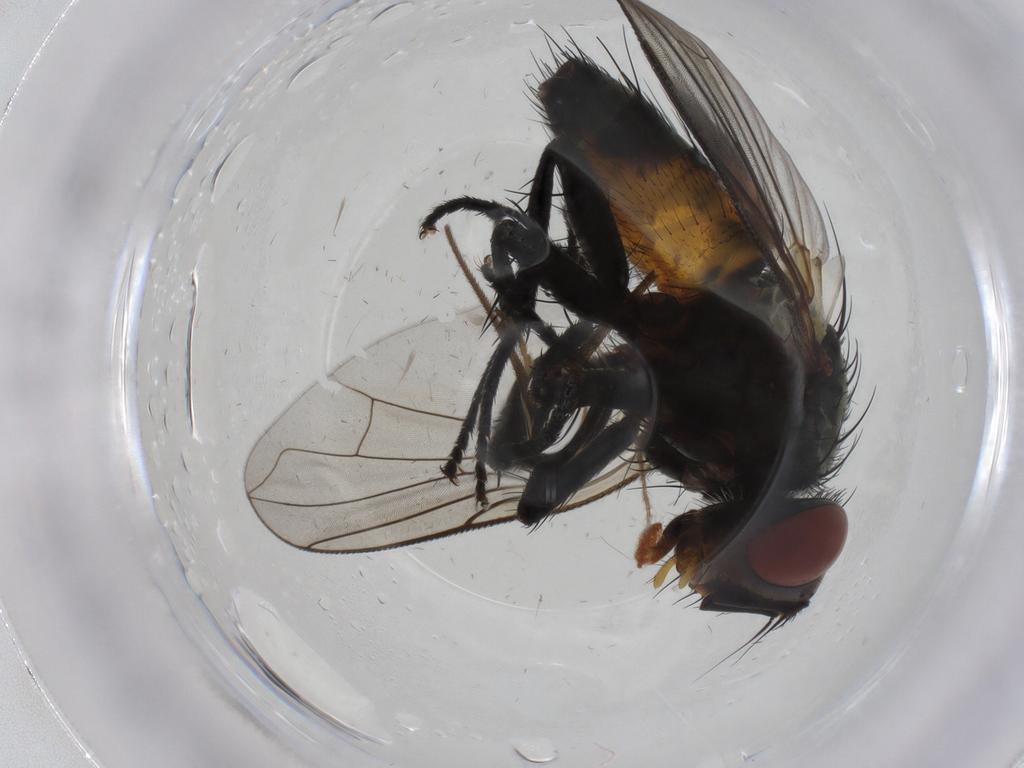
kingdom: Animalia
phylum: Arthropoda
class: Insecta
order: Diptera
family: Tachinidae
